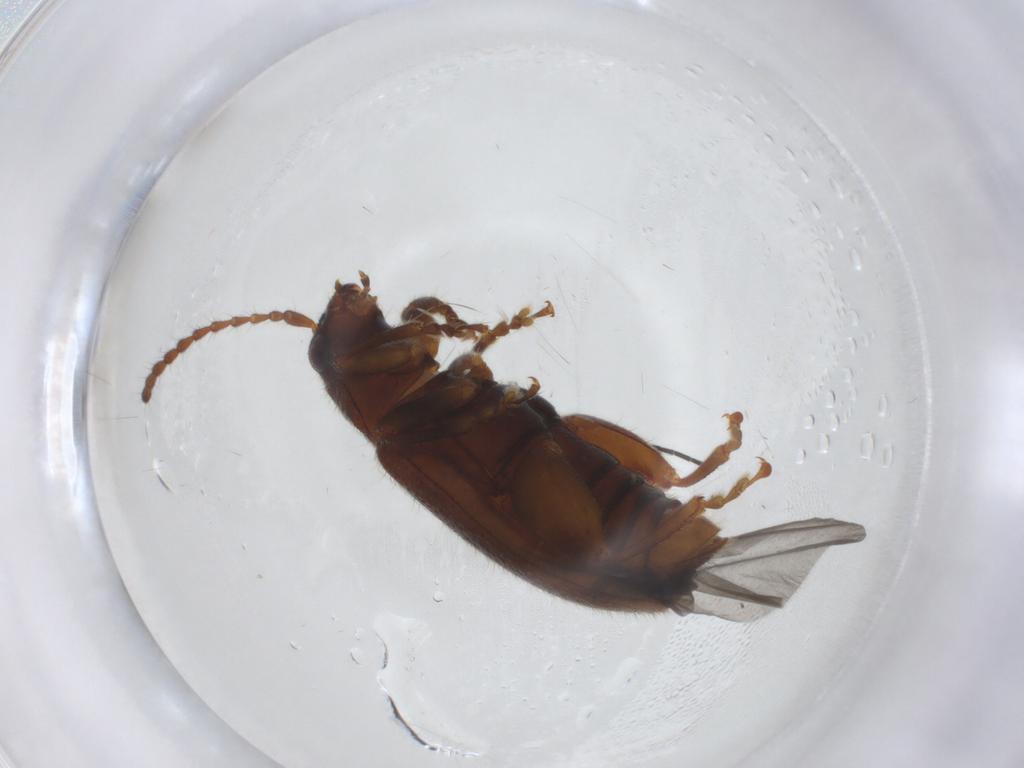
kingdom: Animalia
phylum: Arthropoda
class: Insecta
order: Coleoptera
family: Chrysomelidae
